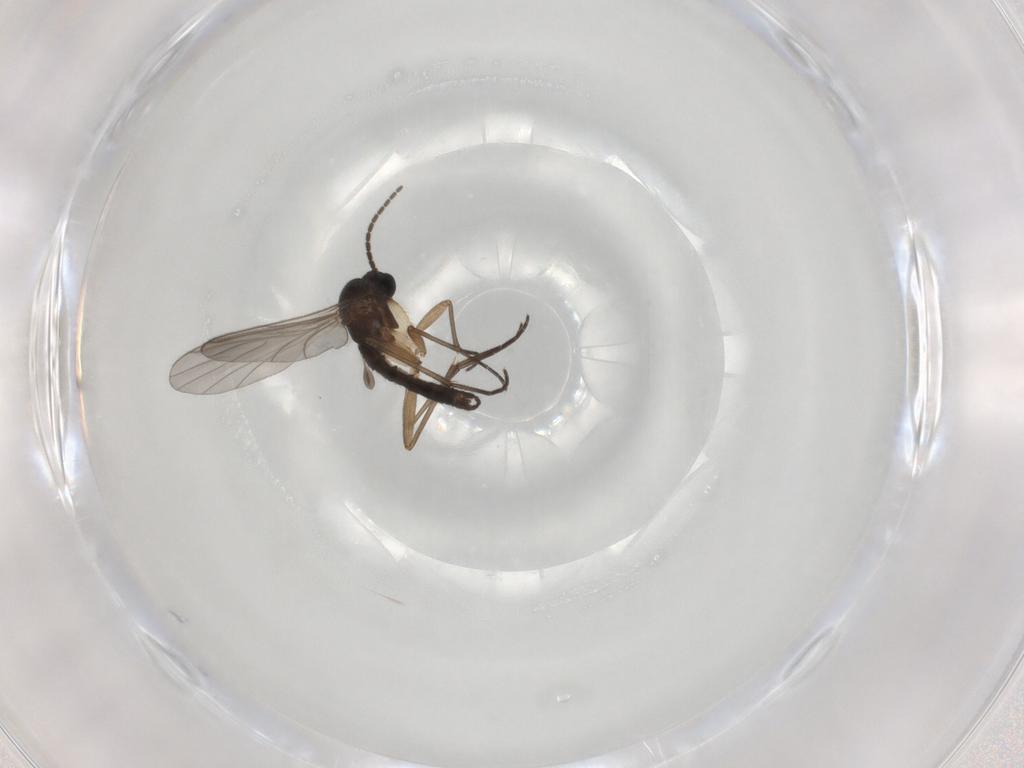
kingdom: Animalia
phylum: Arthropoda
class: Insecta
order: Diptera
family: Sciaridae
